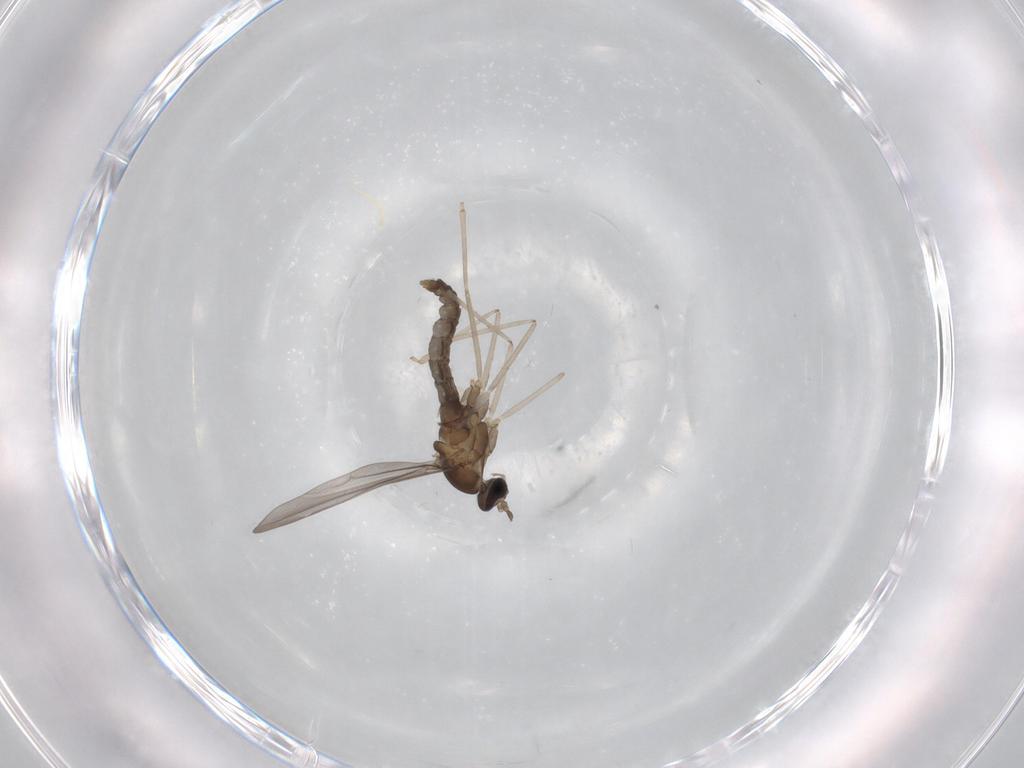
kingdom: Animalia
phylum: Arthropoda
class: Insecta
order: Diptera
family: Cecidomyiidae
